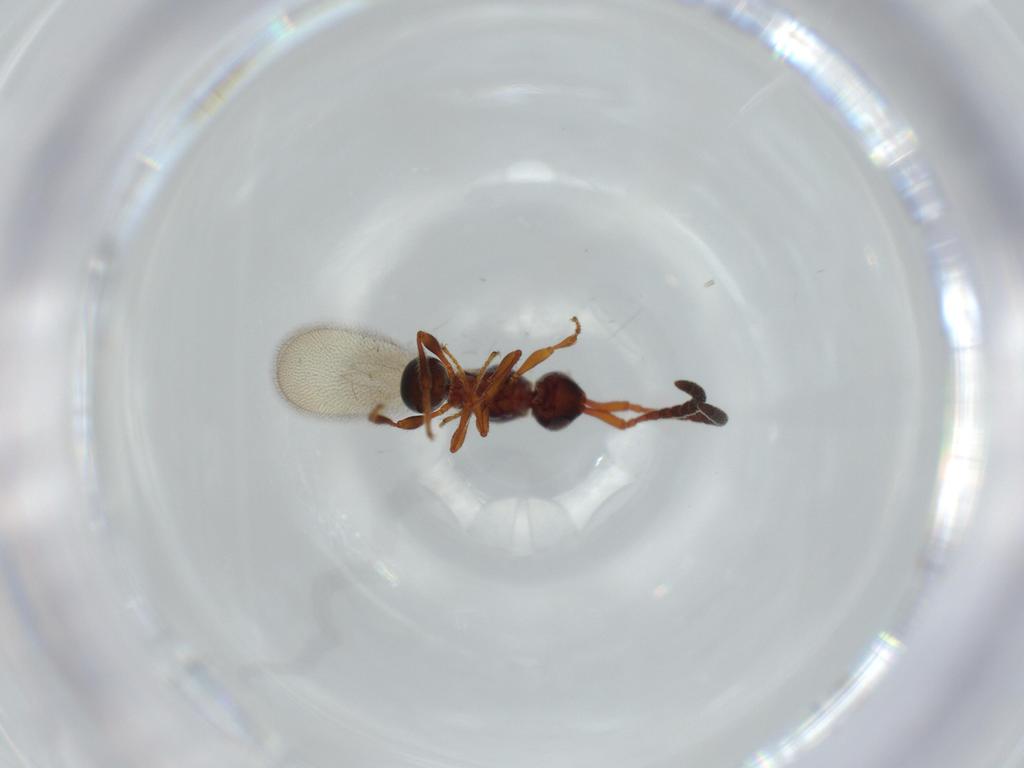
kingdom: Animalia
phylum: Arthropoda
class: Insecta
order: Hymenoptera
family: Diapriidae
